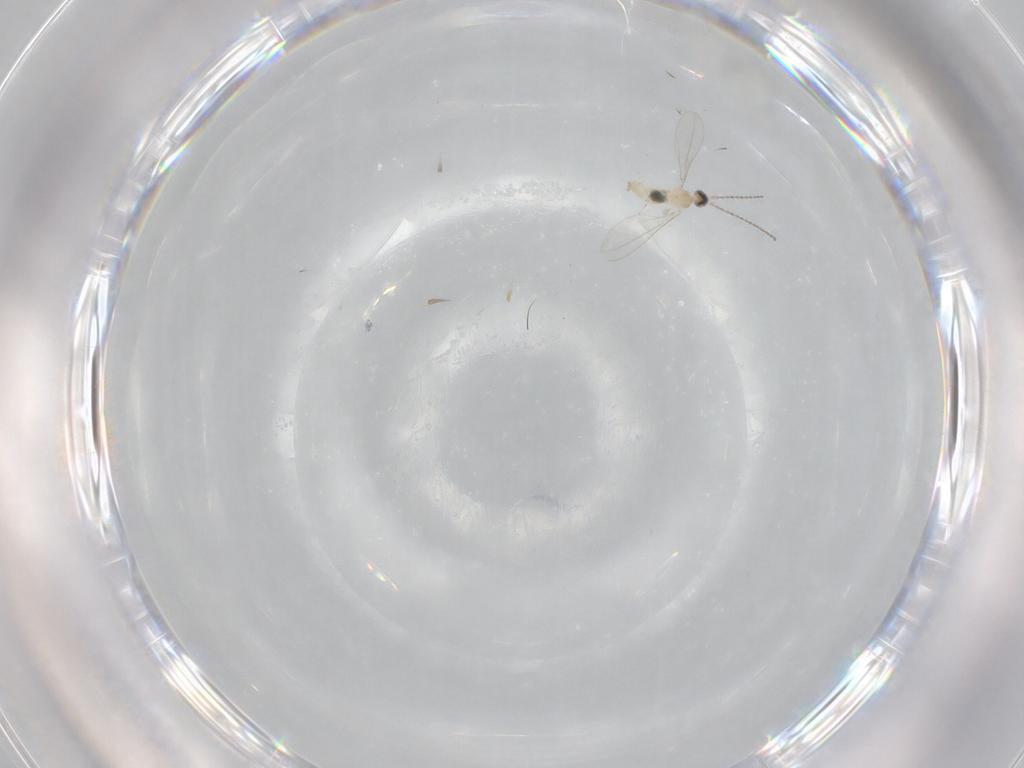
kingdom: Animalia
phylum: Arthropoda
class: Insecta
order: Diptera
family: Cecidomyiidae
